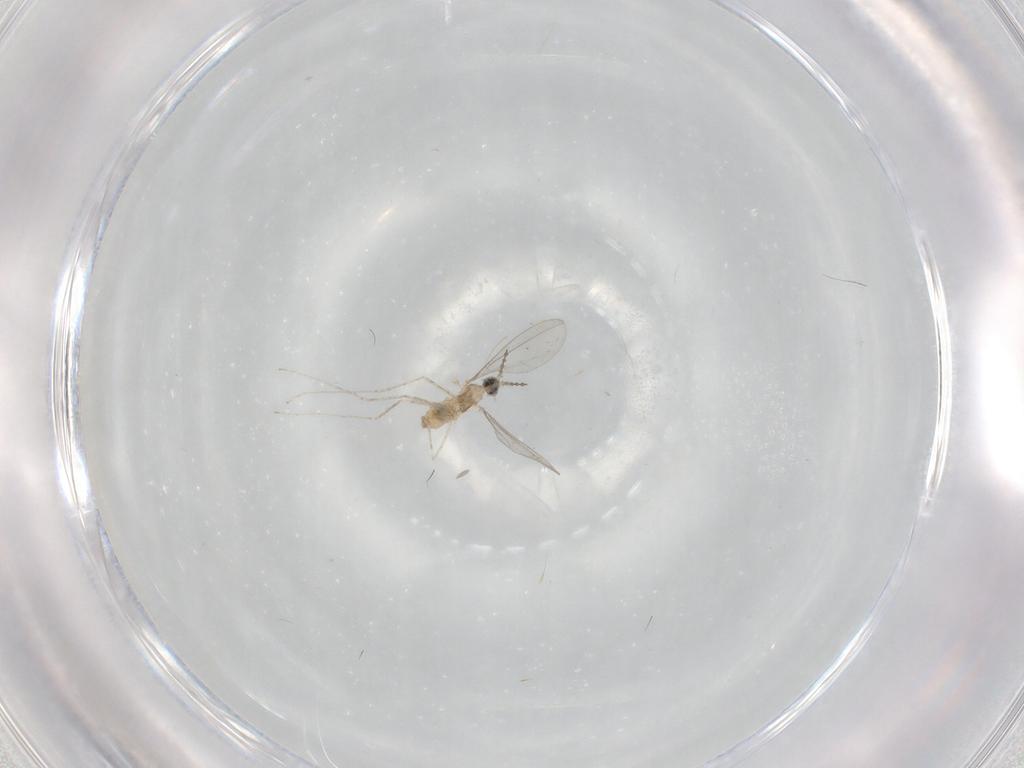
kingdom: Animalia
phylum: Arthropoda
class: Insecta
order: Diptera
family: Cecidomyiidae
